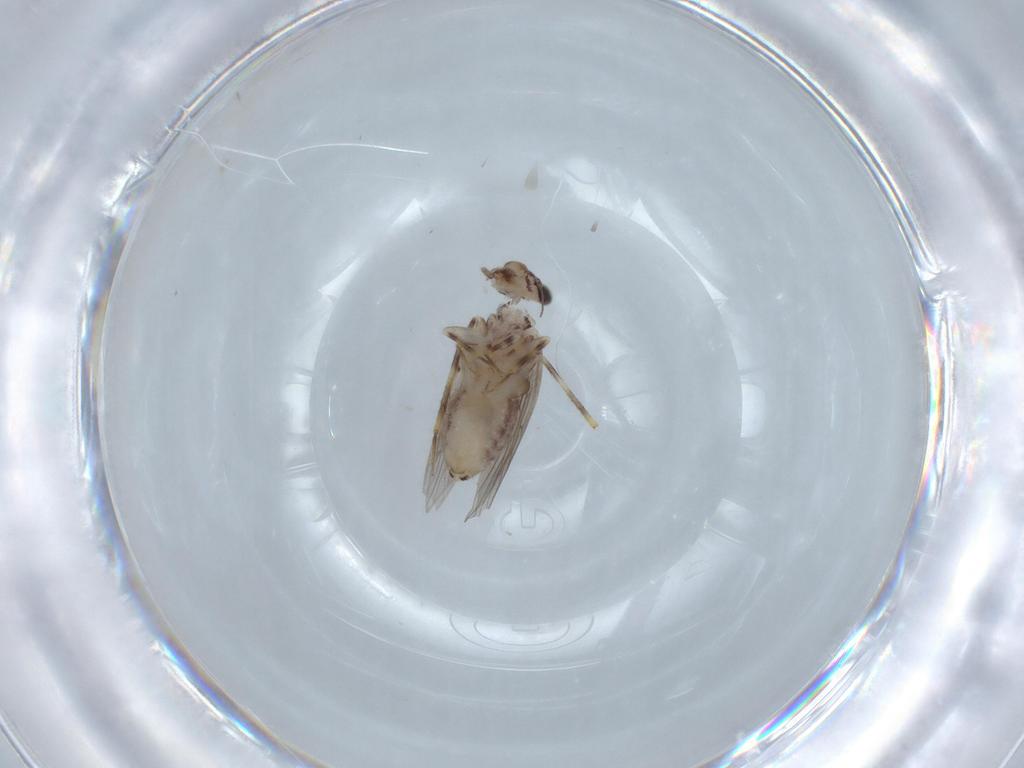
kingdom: Animalia
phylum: Arthropoda
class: Insecta
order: Psocodea
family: Lepidopsocidae
